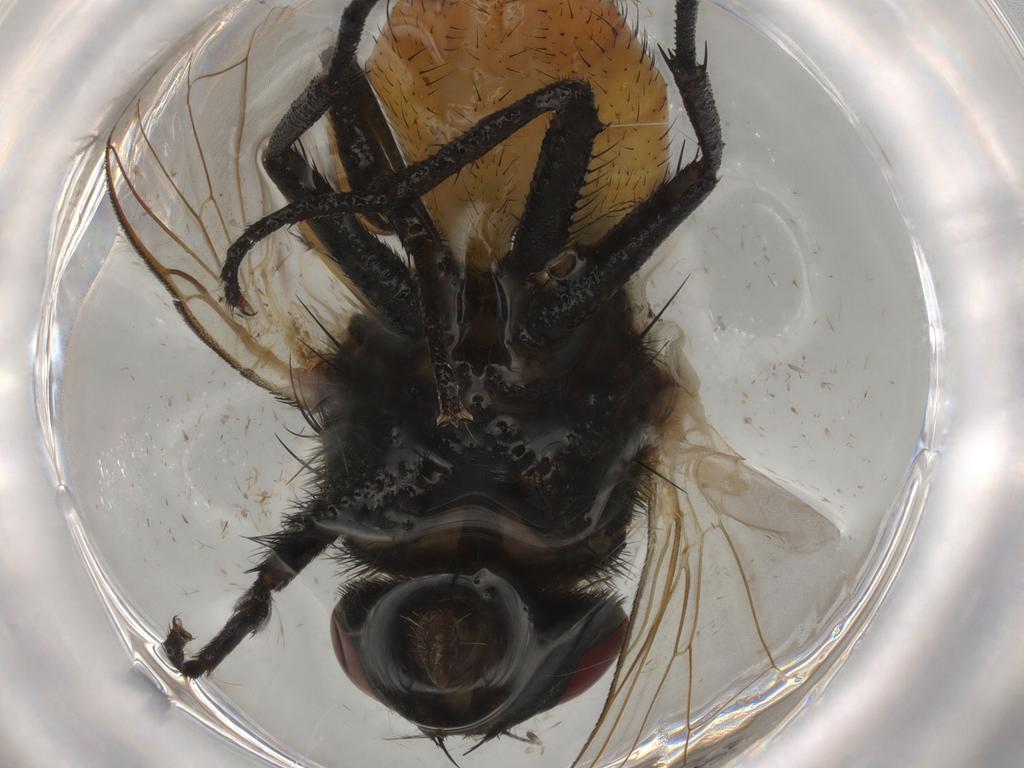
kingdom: Animalia
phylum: Arthropoda
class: Insecta
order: Diptera
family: Muscidae
